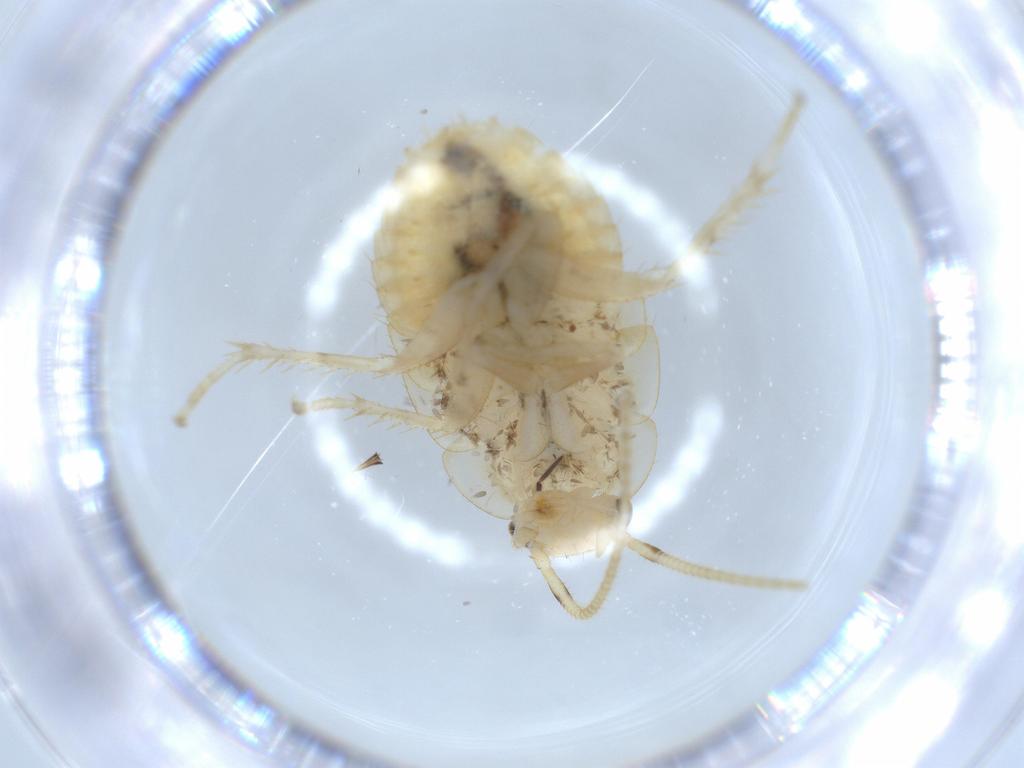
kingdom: Animalia
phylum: Arthropoda
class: Insecta
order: Blattodea
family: Ectobiidae
